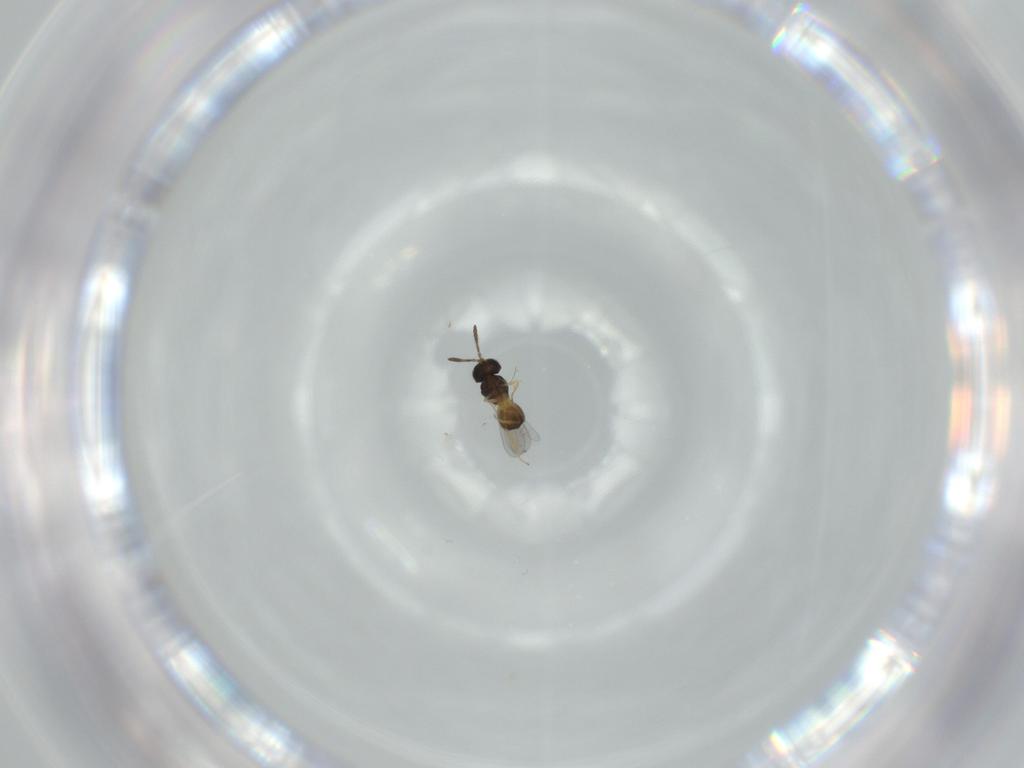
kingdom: Animalia
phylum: Arthropoda
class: Insecta
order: Hymenoptera
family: Scelionidae
